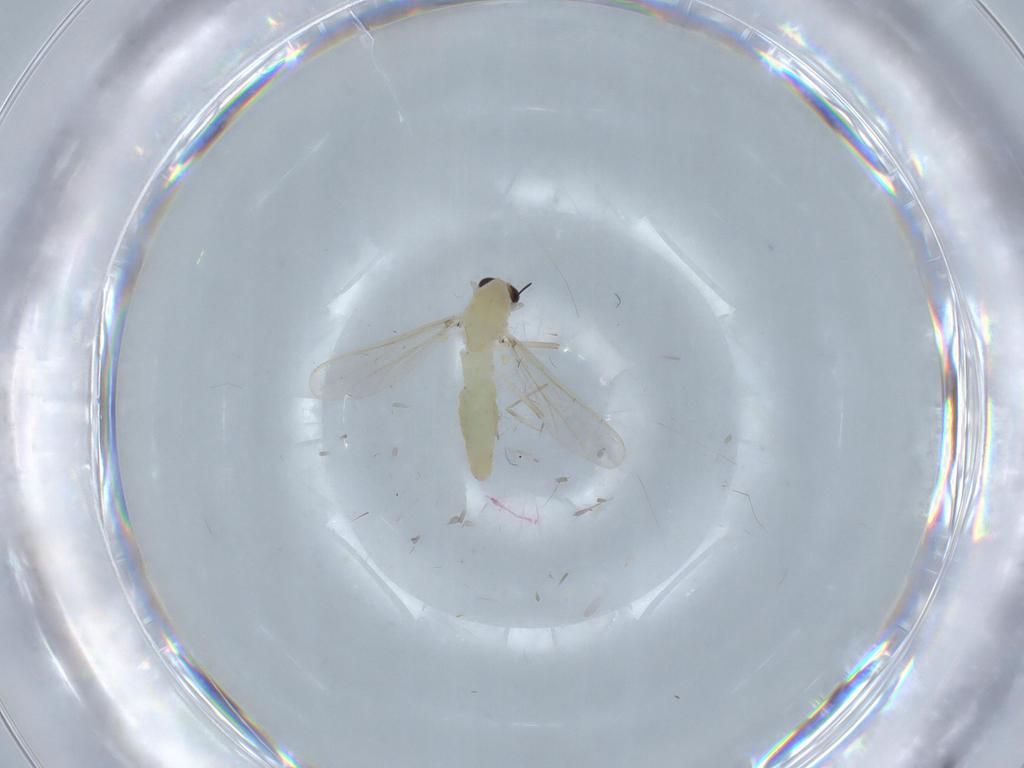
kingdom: Animalia
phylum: Arthropoda
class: Insecta
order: Diptera
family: Chironomidae
